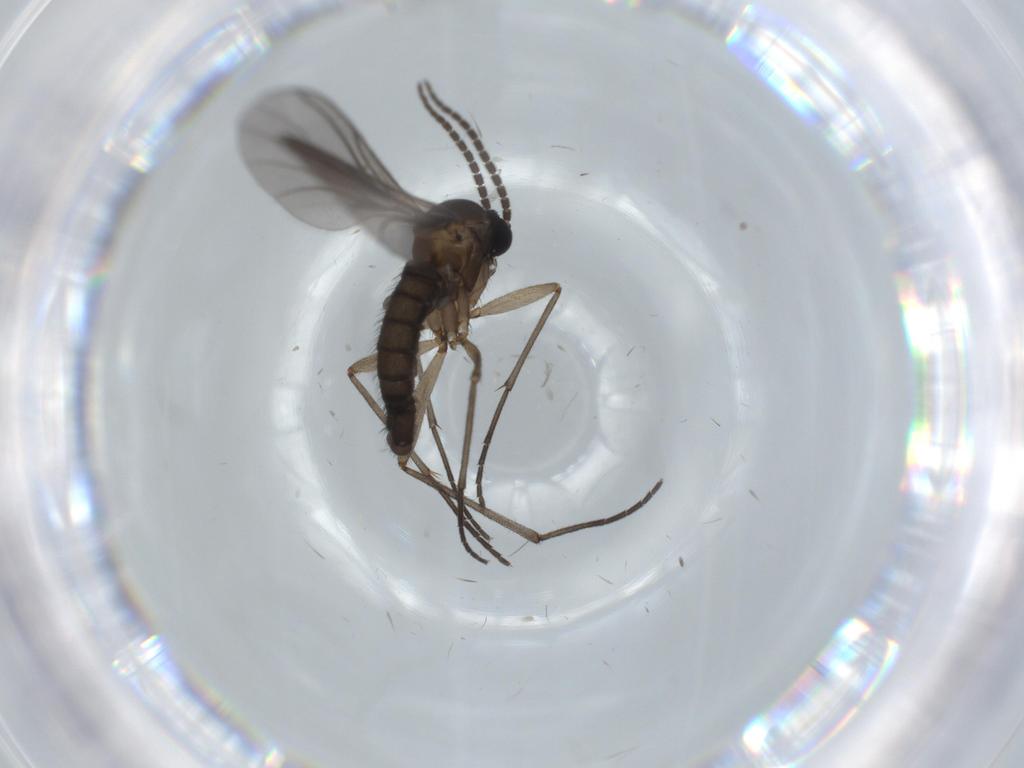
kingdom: Animalia
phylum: Arthropoda
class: Insecta
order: Diptera
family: Sciaridae
